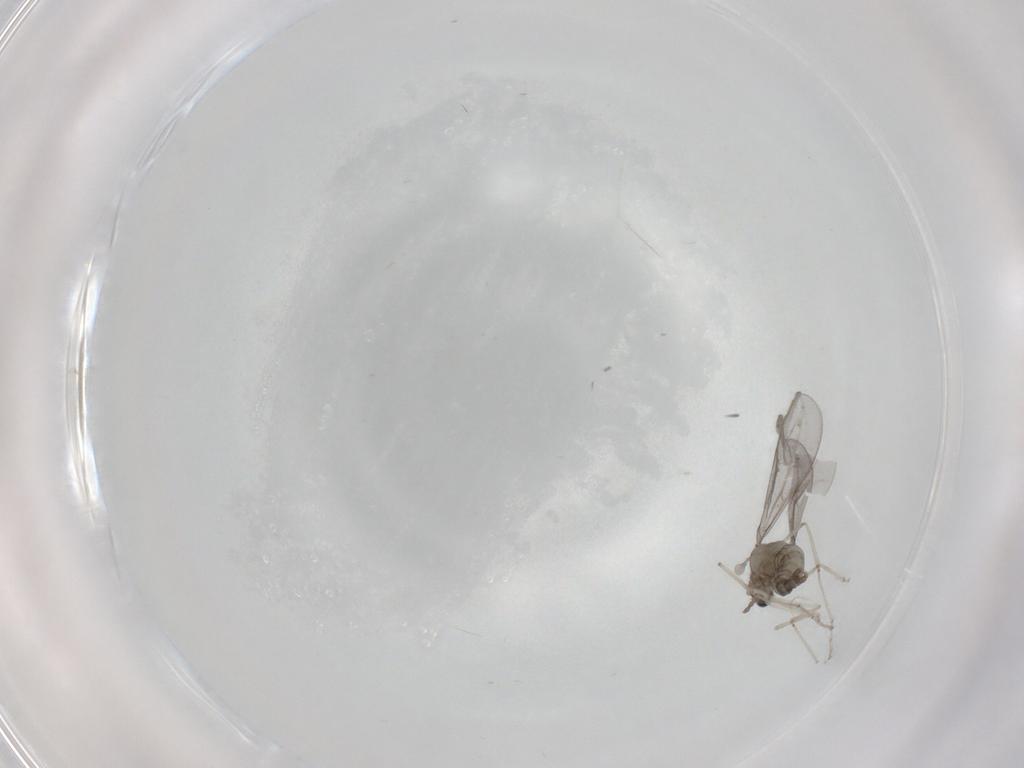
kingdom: Animalia
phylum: Arthropoda
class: Insecta
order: Diptera
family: Cecidomyiidae
